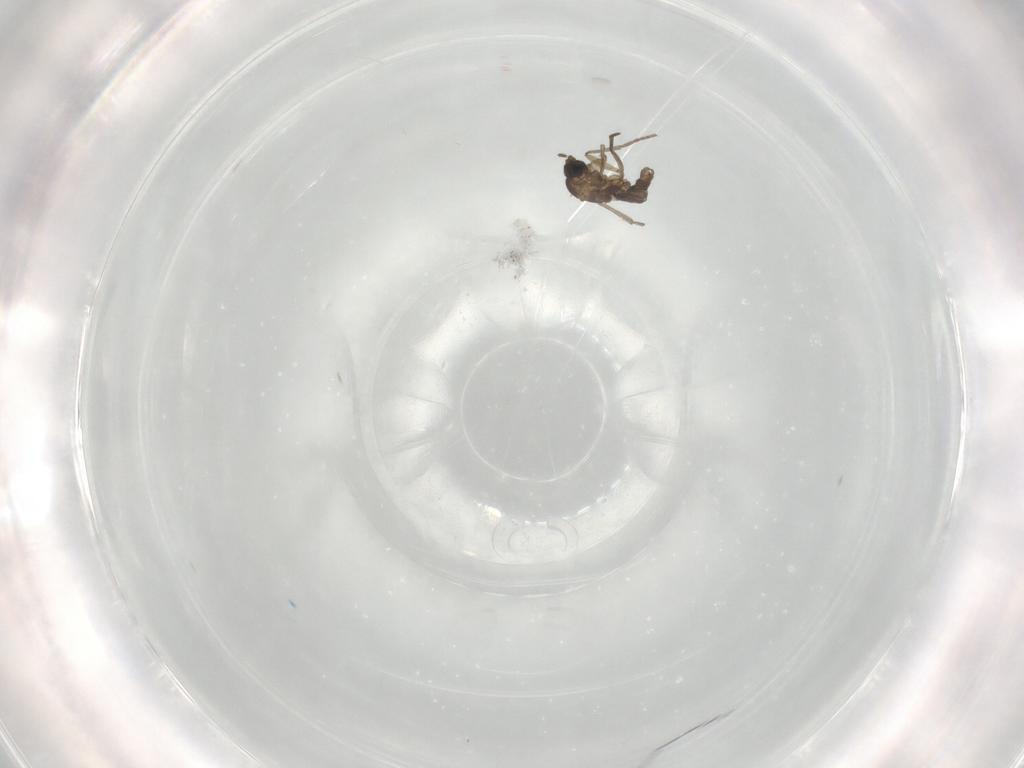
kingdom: Animalia
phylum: Arthropoda
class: Insecta
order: Diptera
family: Sciaridae
